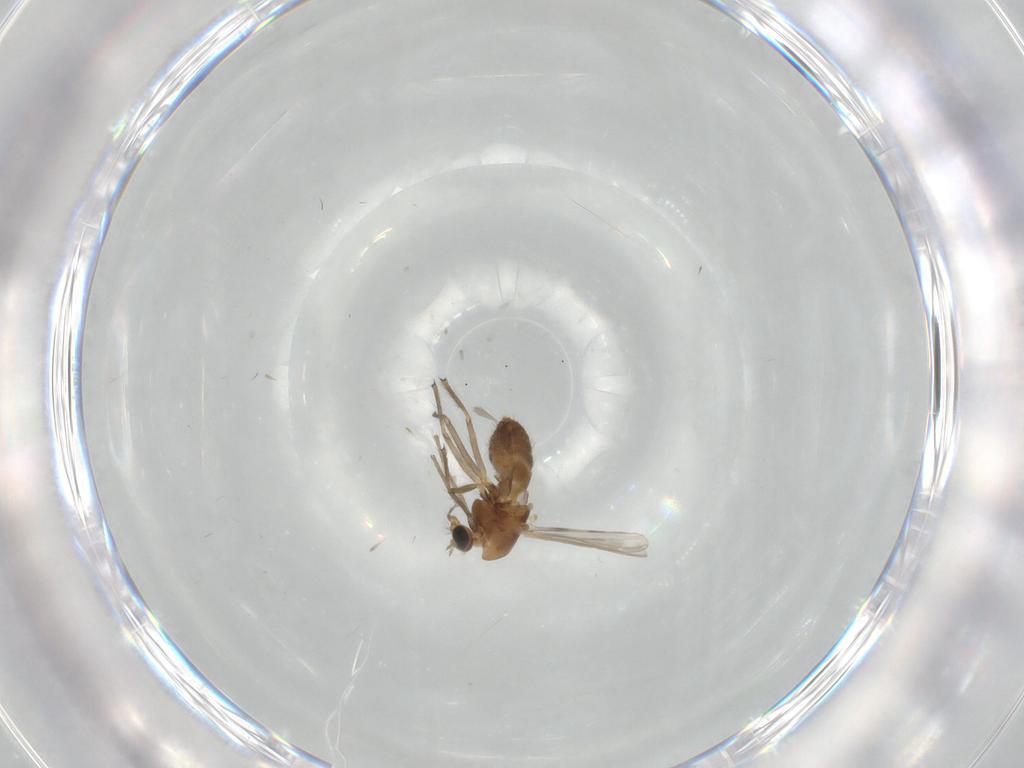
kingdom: Animalia
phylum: Arthropoda
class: Insecta
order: Diptera
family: Chironomidae
